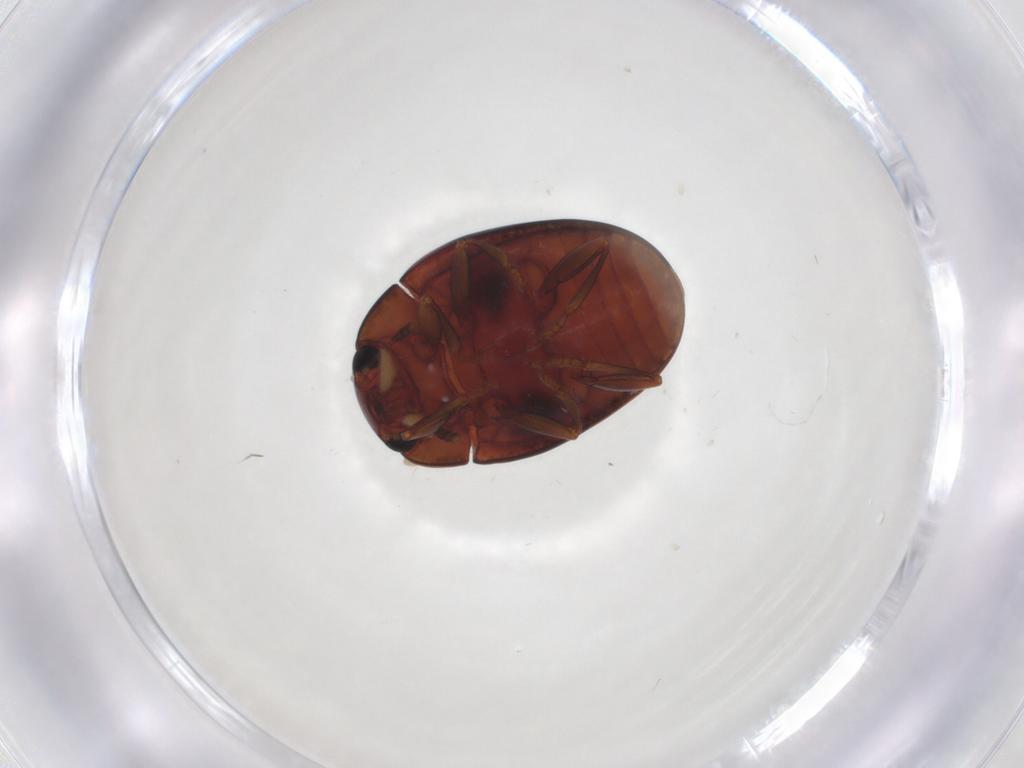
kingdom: Animalia
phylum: Arthropoda
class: Insecta
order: Coleoptera
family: Erotylidae
